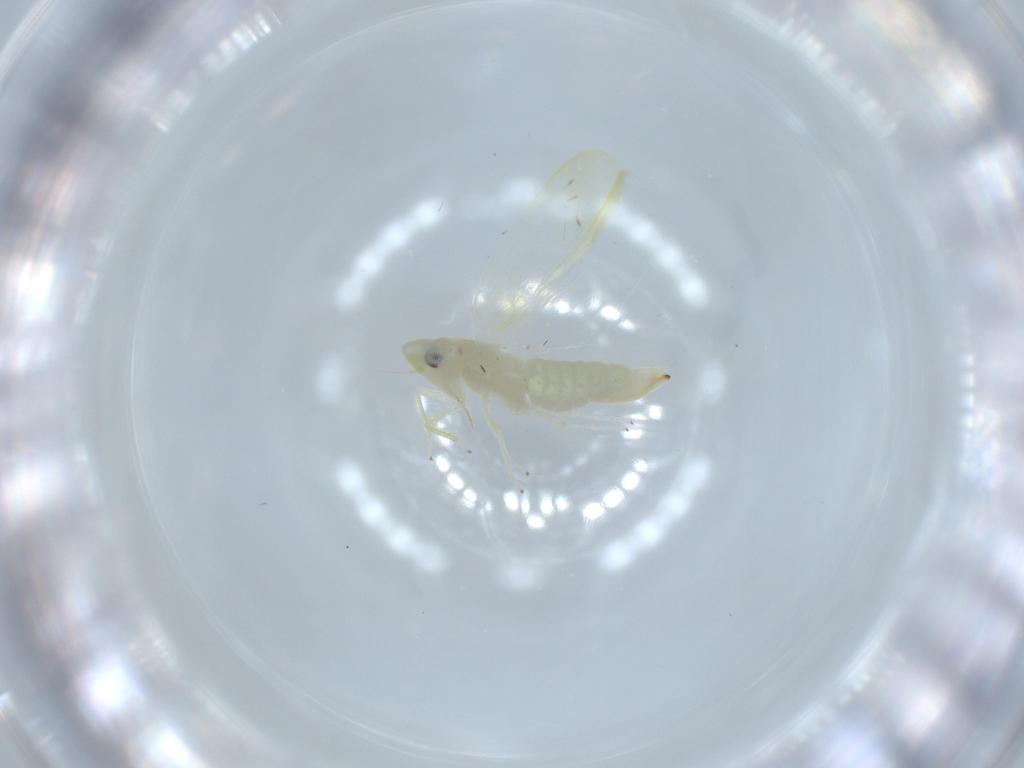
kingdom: Animalia
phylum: Arthropoda
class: Insecta
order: Hemiptera
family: Cicadellidae
